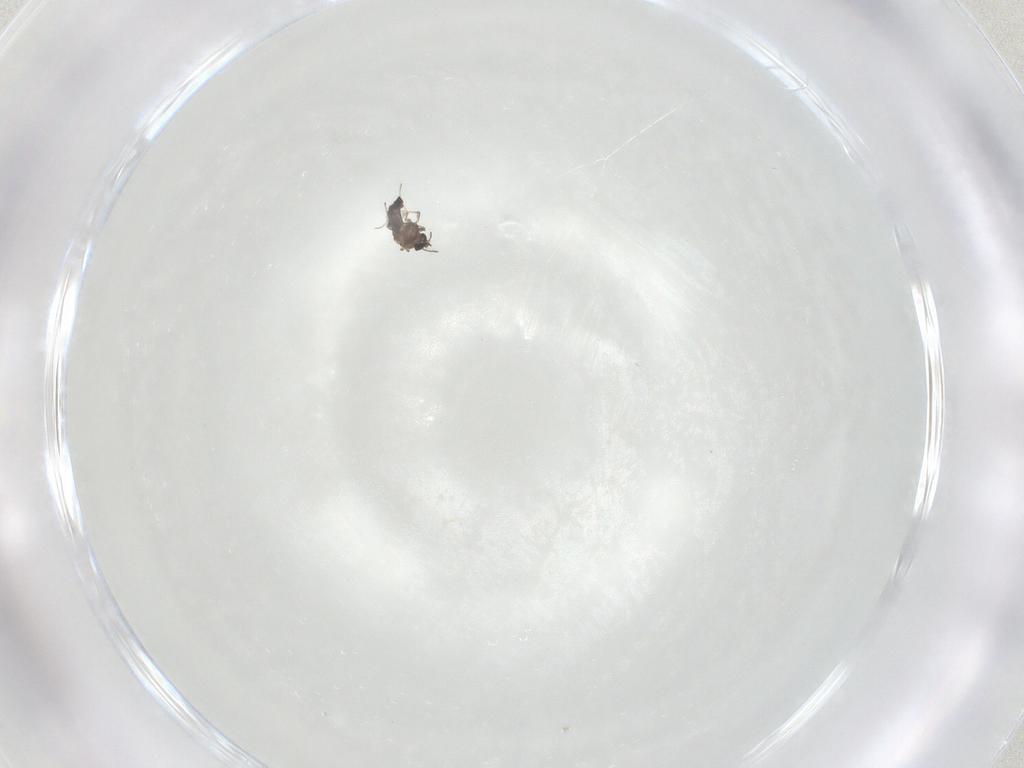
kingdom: Animalia
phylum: Arthropoda
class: Insecta
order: Diptera
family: Chironomidae
